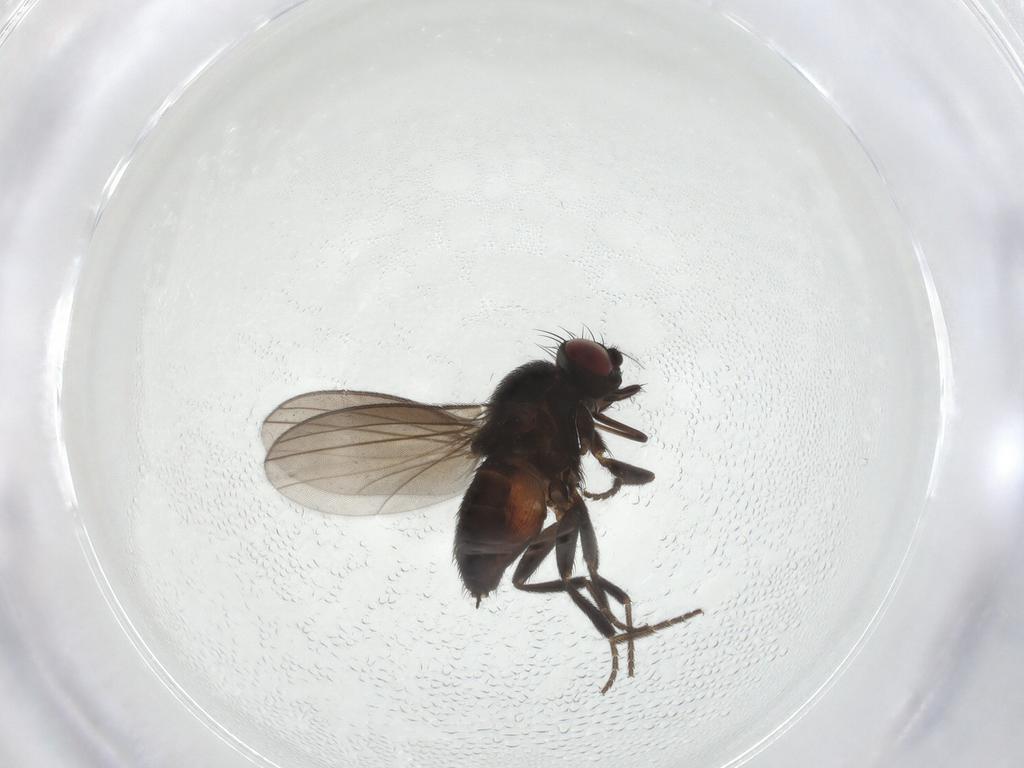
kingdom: Animalia
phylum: Arthropoda
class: Insecta
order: Diptera
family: Milichiidae
